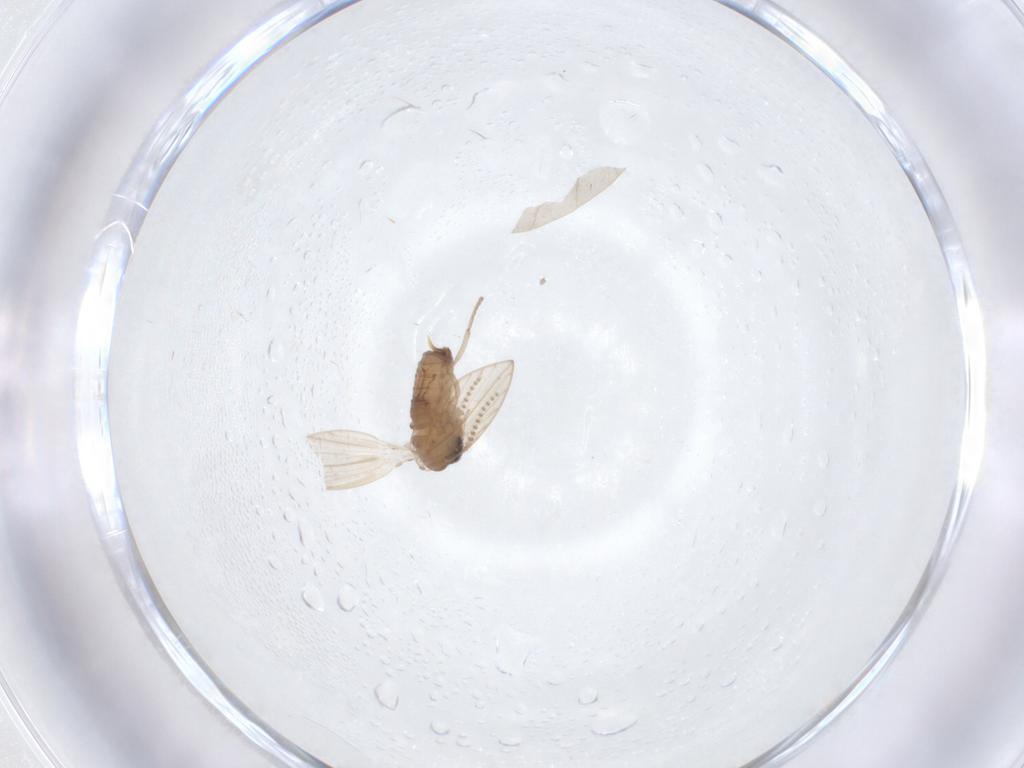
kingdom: Animalia
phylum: Arthropoda
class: Insecta
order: Diptera
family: Psychodidae
